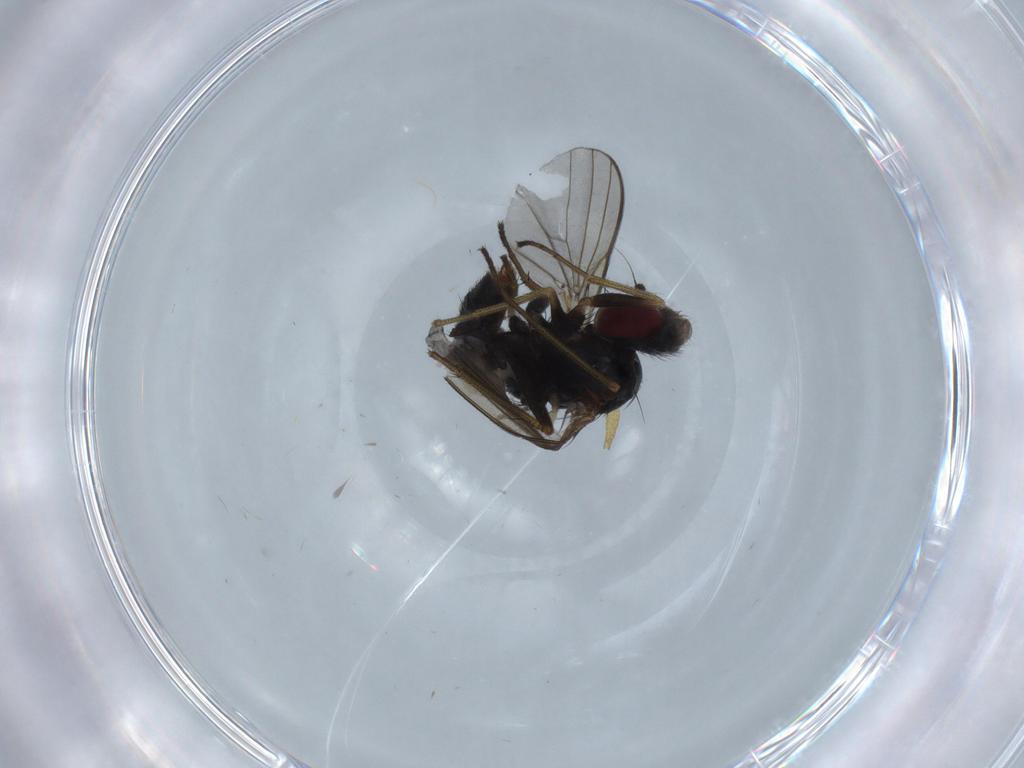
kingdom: Animalia
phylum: Arthropoda
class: Insecta
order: Diptera
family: Dolichopodidae
